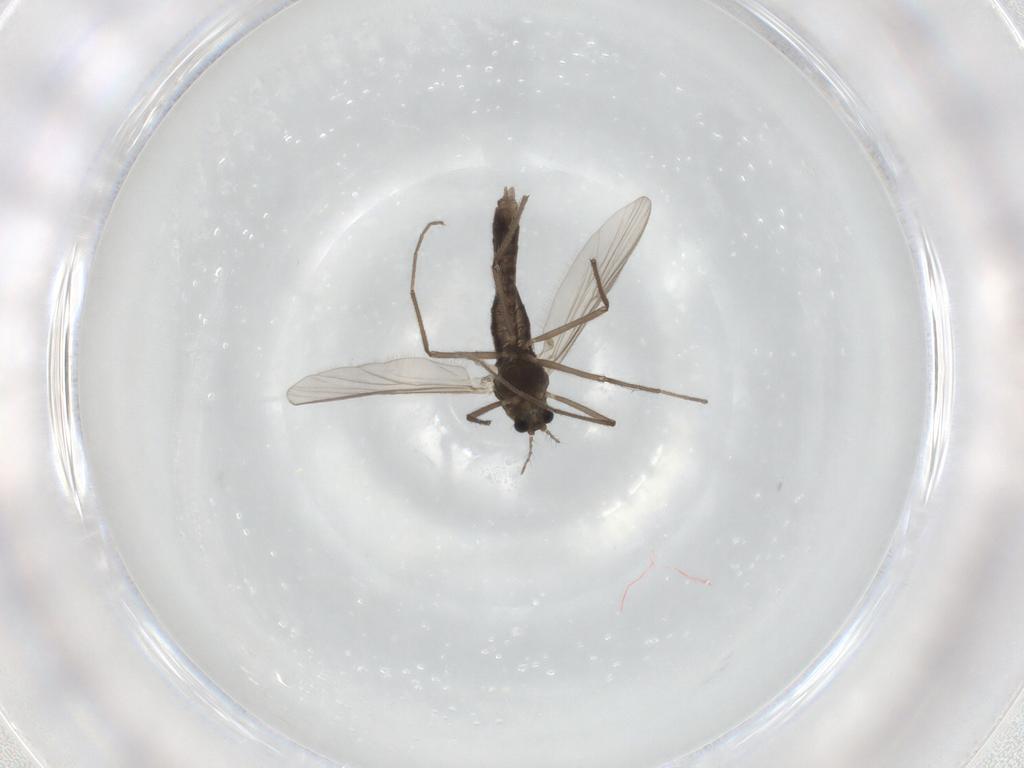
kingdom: Animalia
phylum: Arthropoda
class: Insecta
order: Diptera
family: Chironomidae
